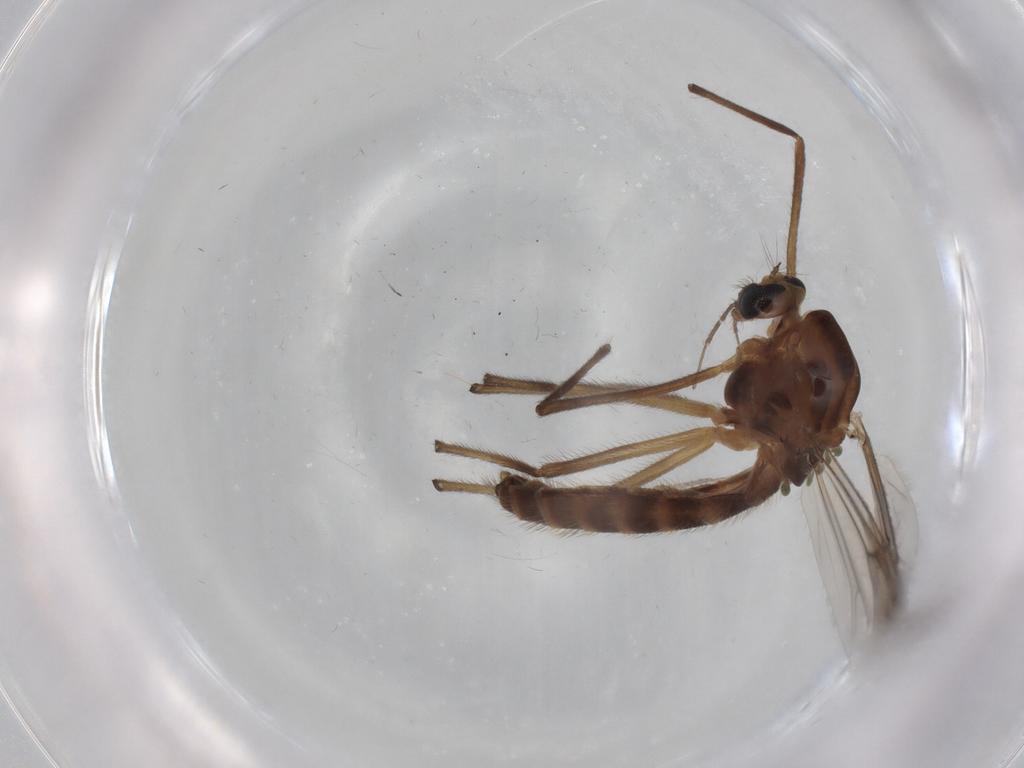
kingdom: Animalia
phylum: Arthropoda
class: Insecta
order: Diptera
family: Chironomidae
